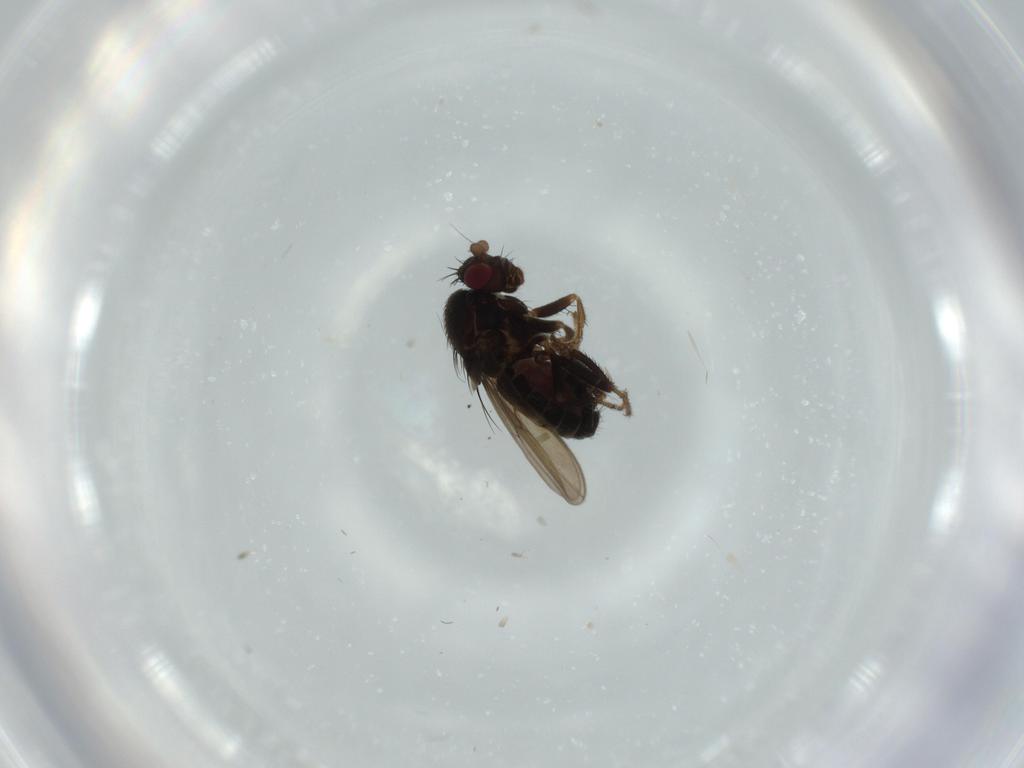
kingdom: Animalia
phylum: Arthropoda
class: Insecta
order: Diptera
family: Sphaeroceridae
